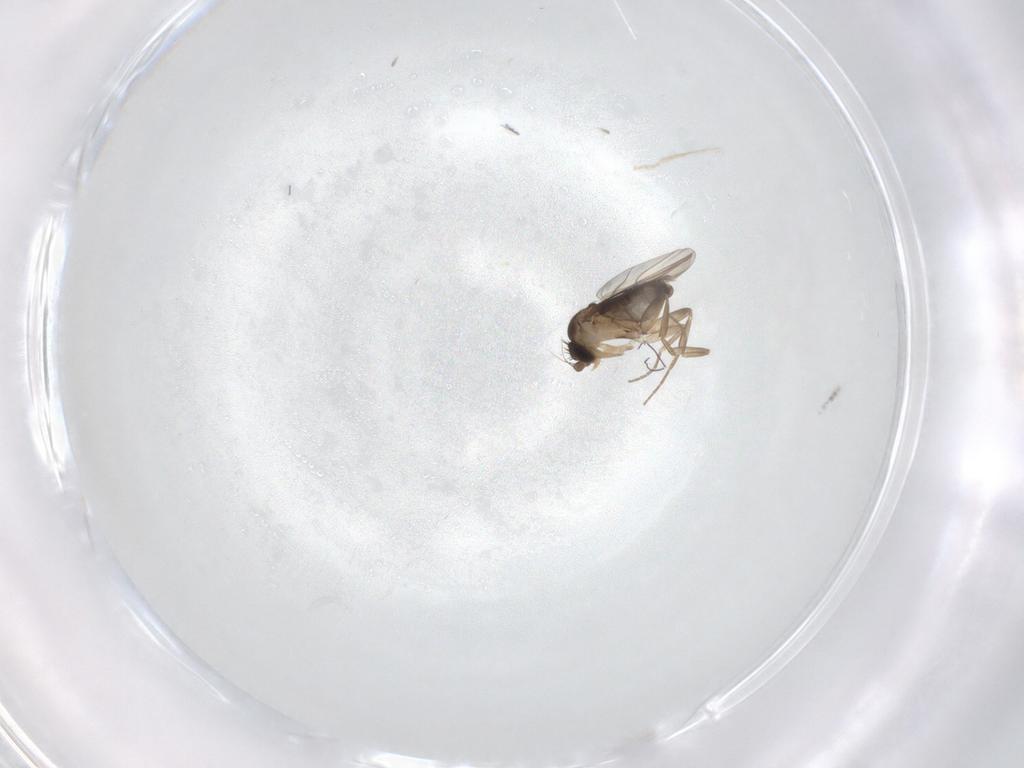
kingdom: Animalia
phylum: Arthropoda
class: Insecta
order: Diptera
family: Phoridae
